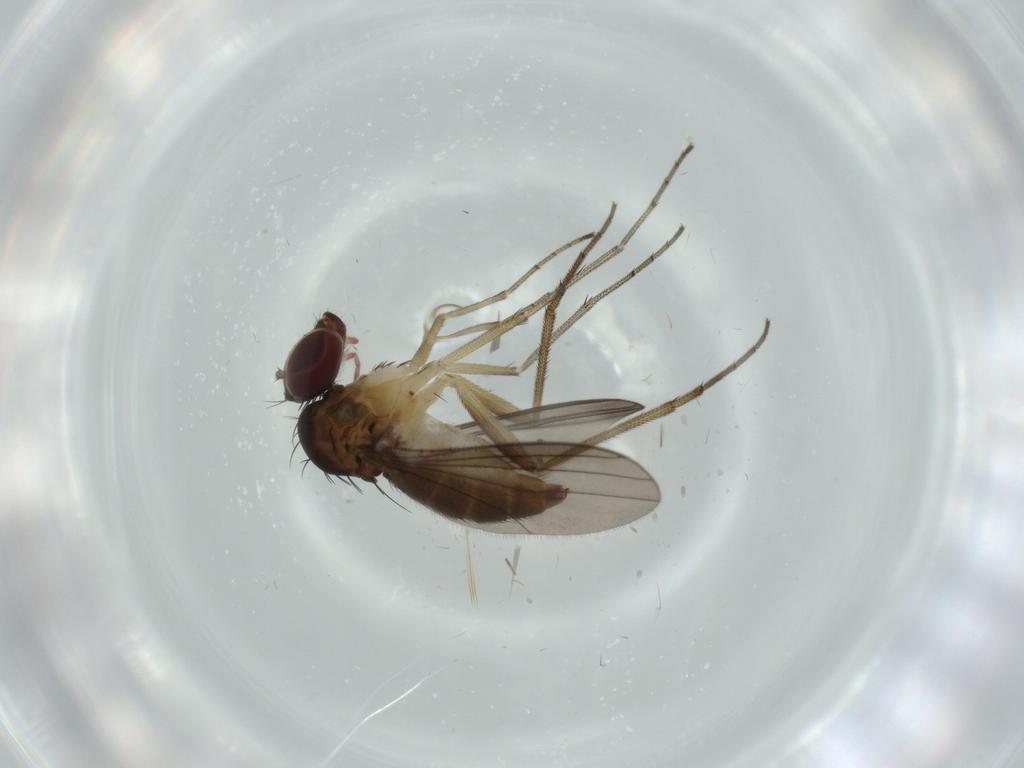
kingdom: Animalia
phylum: Arthropoda
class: Insecta
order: Diptera
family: Dolichopodidae
